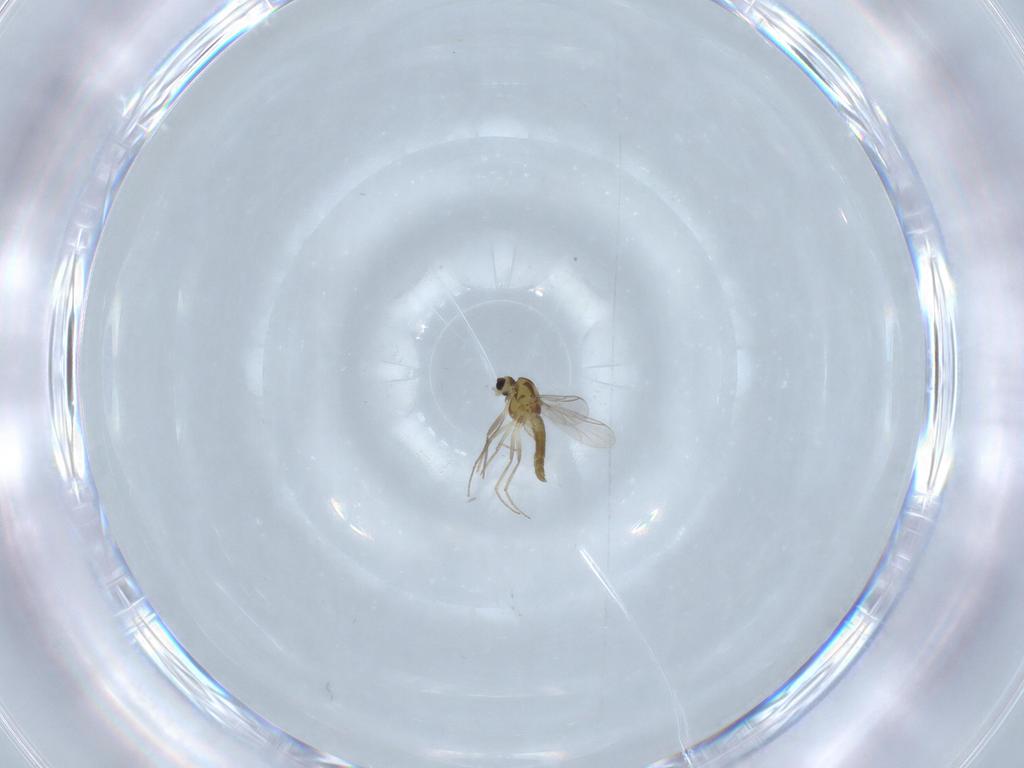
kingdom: Animalia
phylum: Arthropoda
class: Insecta
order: Diptera
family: Chironomidae
